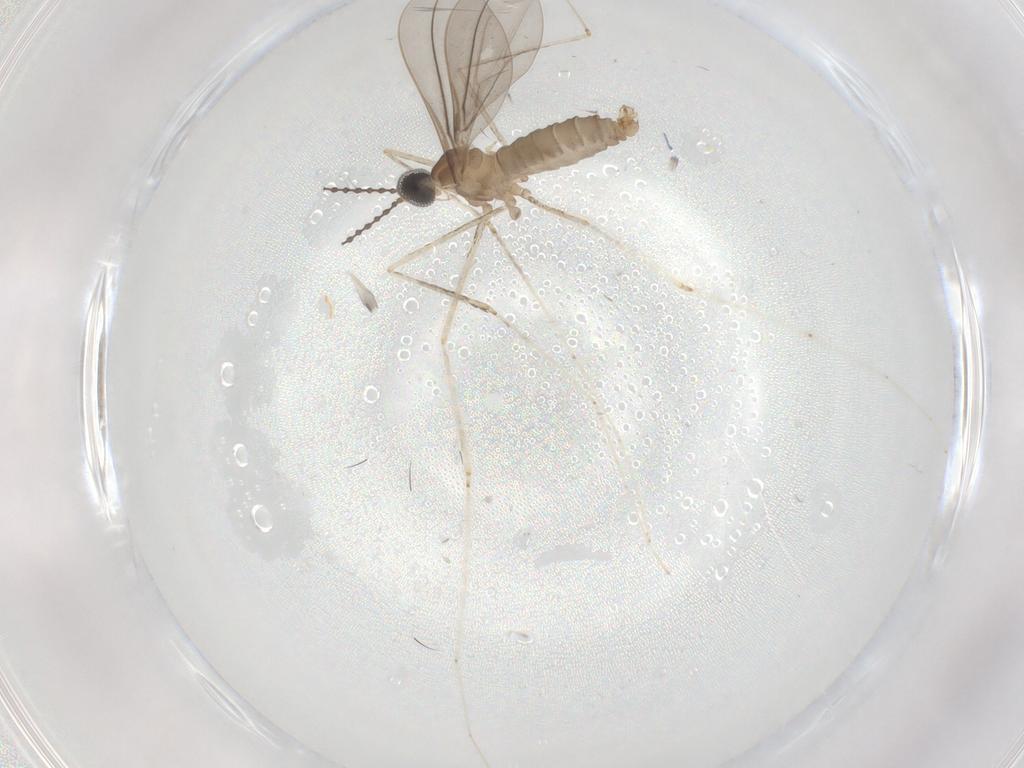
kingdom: Animalia
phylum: Arthropoda
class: Insecta
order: Diptera
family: Cecidomyiidae
